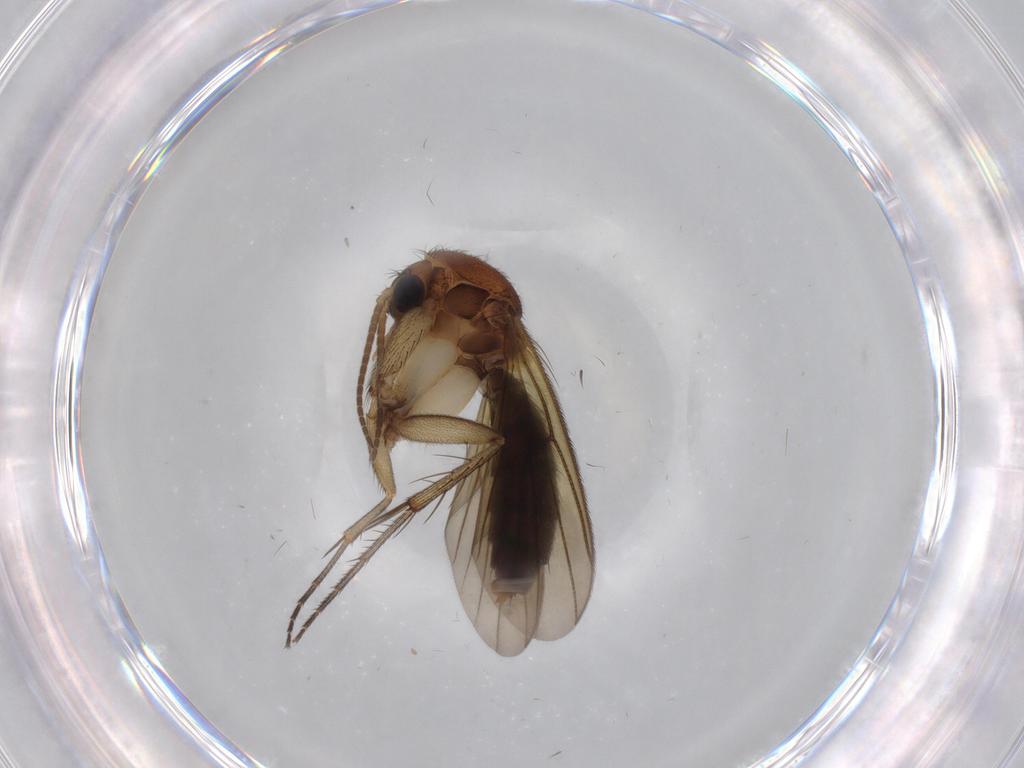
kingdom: Animalia
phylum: Arthropoda
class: Insecta
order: Diptera
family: Mycetophilidae
